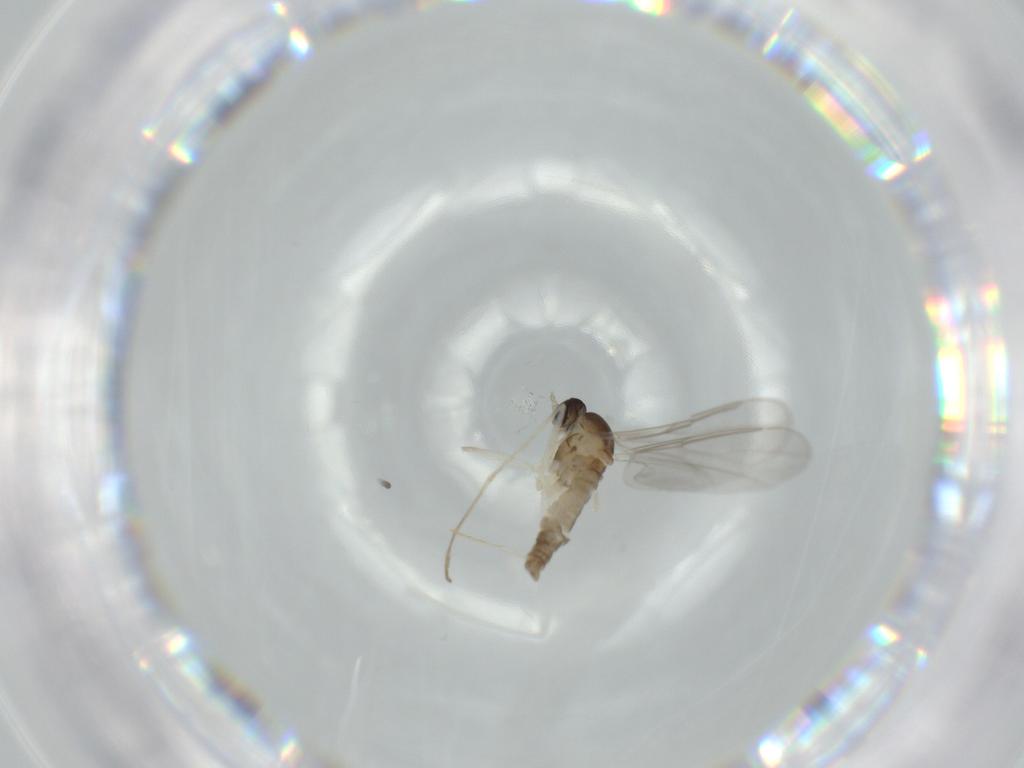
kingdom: Animalia
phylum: Arthropoda
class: Insecta
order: Diptera
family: Cecidomyiidae
